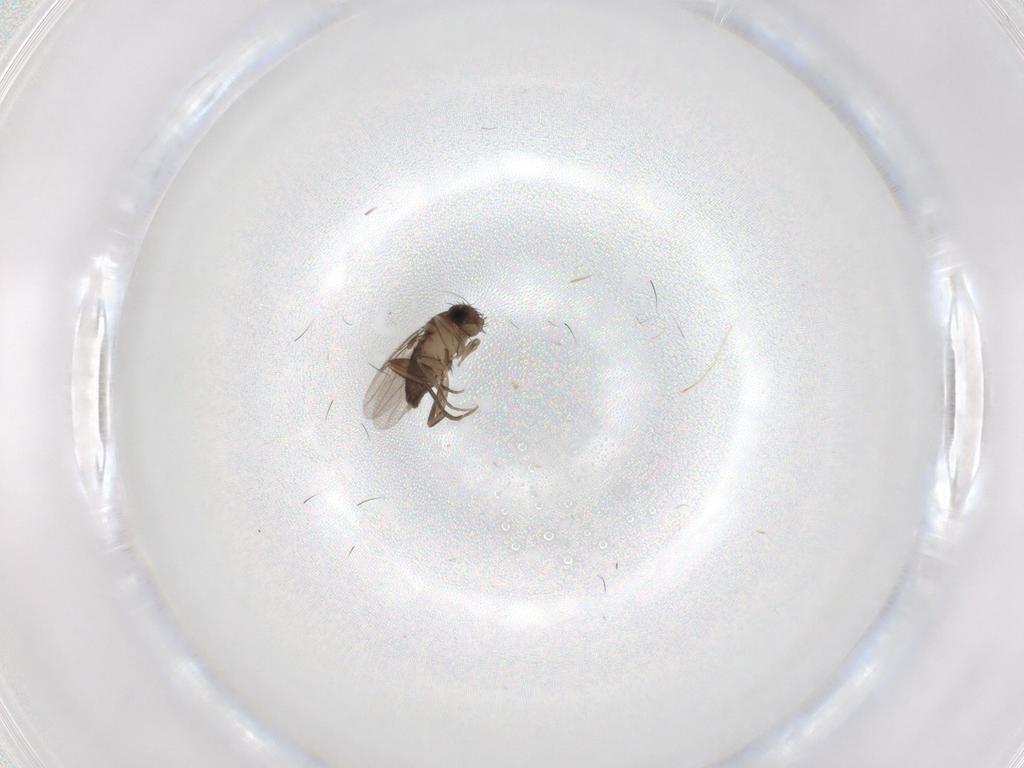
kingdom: Animalia
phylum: Arthropoda
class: Insecta
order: Diptera
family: Phoridae
